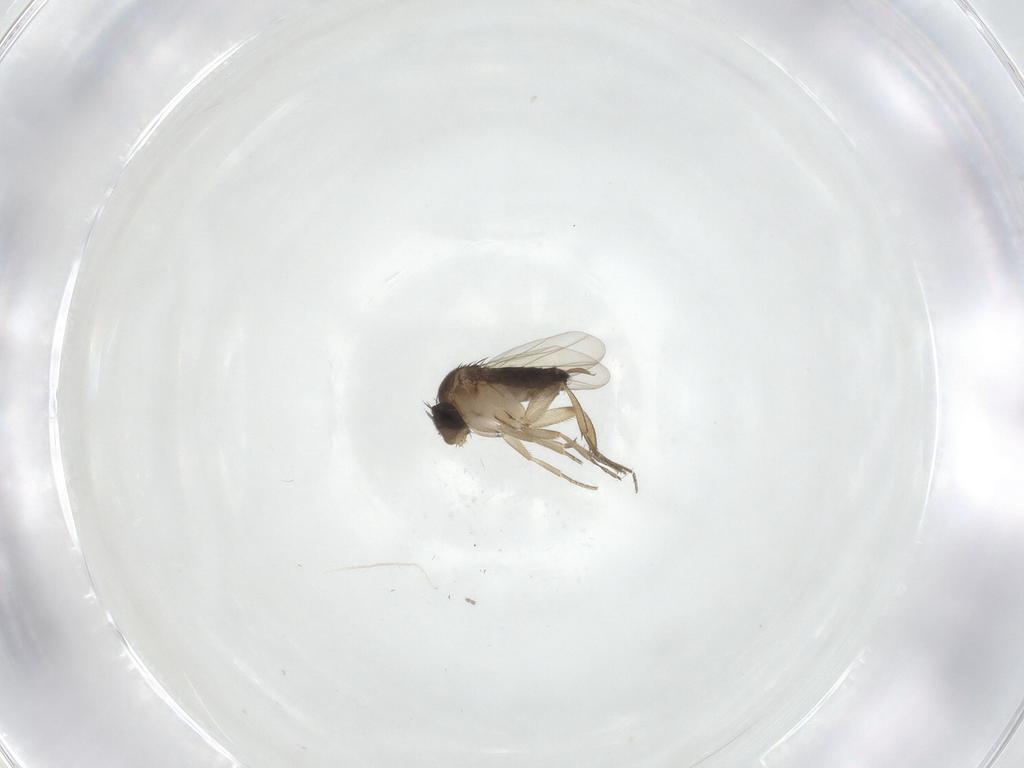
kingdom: Animalia
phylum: Arthropoda
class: Insecta
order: Diptera
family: Phoridae
